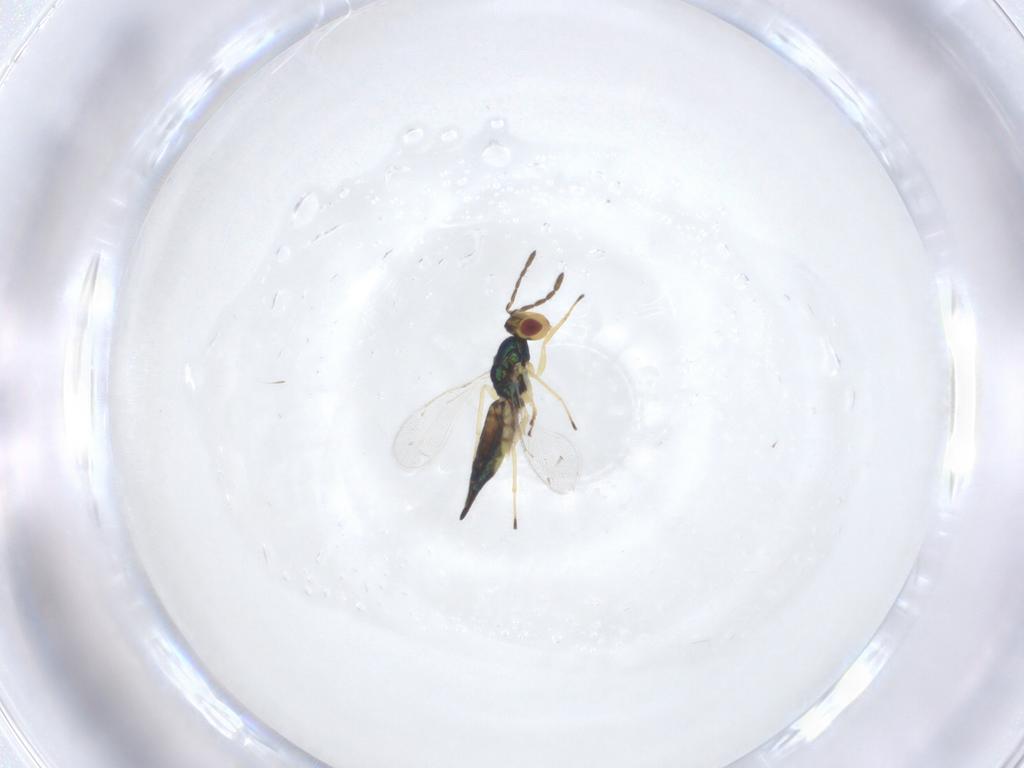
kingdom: Animalia
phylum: Arthropoda
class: Insecta
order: Hymenoptera
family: Eulophidae
